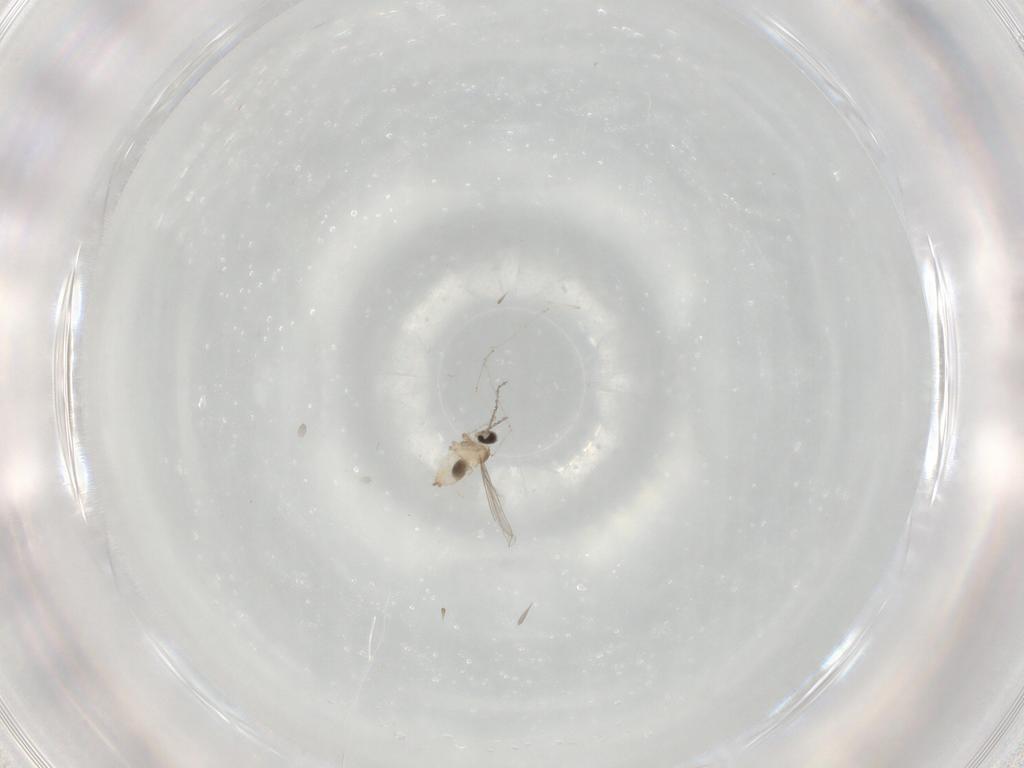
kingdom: Animalia
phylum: Arthropoda
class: Insecta
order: Diptera
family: Cecidomyiidae
